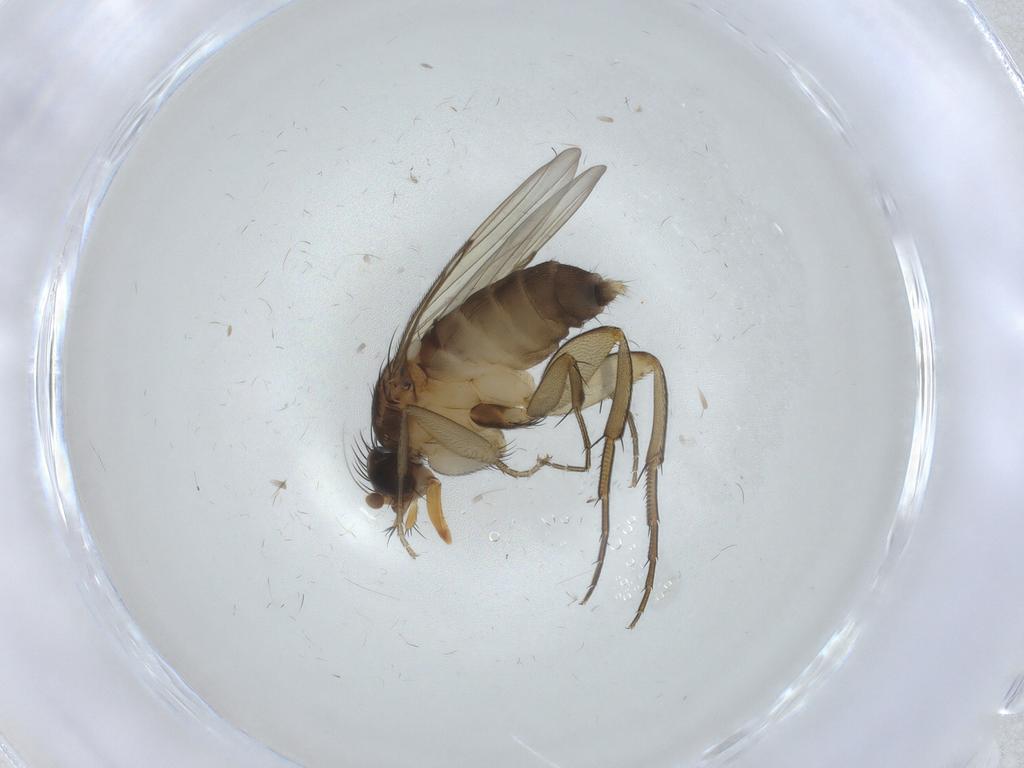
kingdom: Animalia
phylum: Arthropoda
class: Insecta
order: Diptera
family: Phoridae
